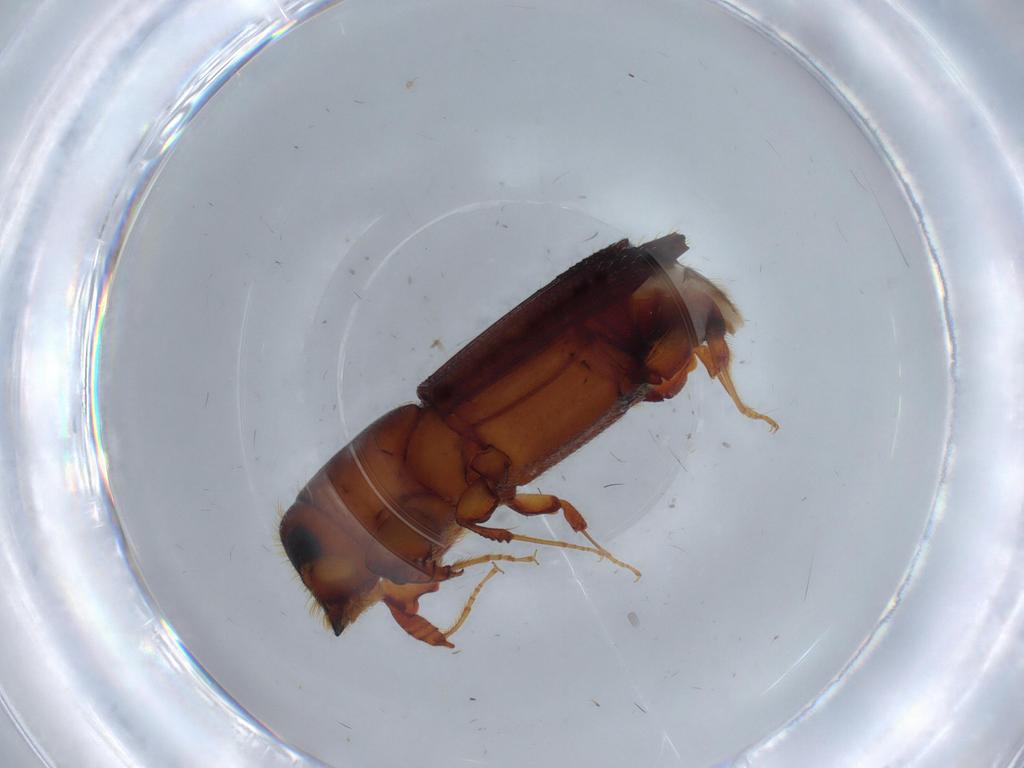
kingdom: Animalia
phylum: Arthropoda
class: Insecta
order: Coleoptera
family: Curculionidae
